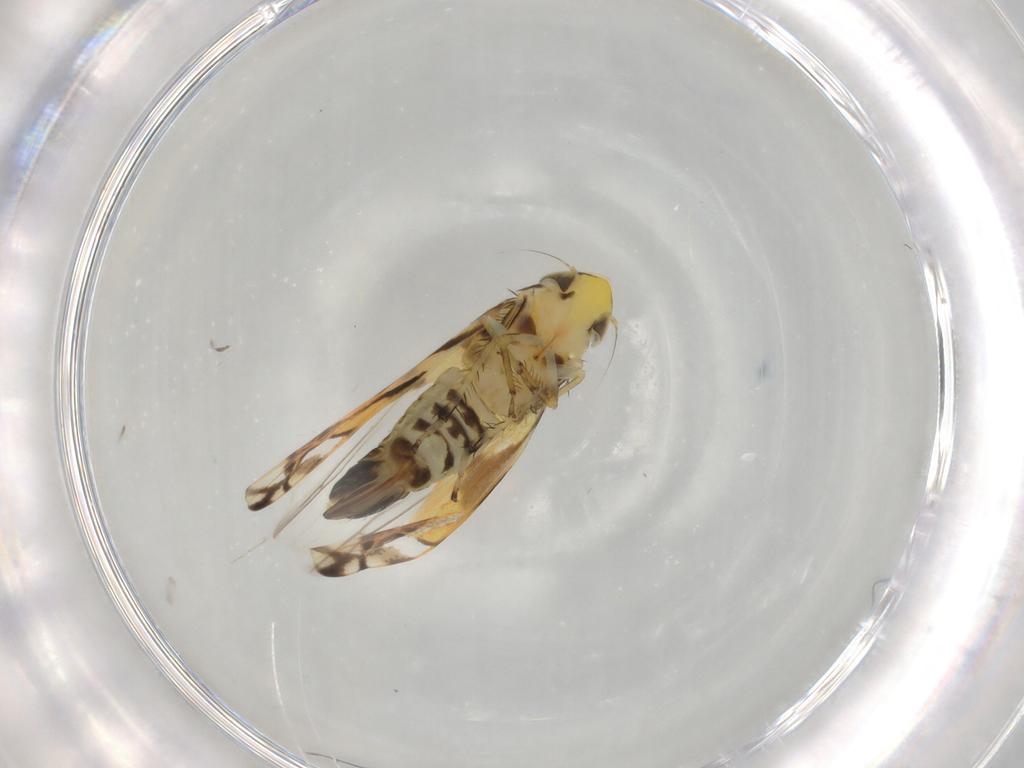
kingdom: Animalia
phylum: Arthropoda
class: Insecta
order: Hemiptera
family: Cicadellidae
